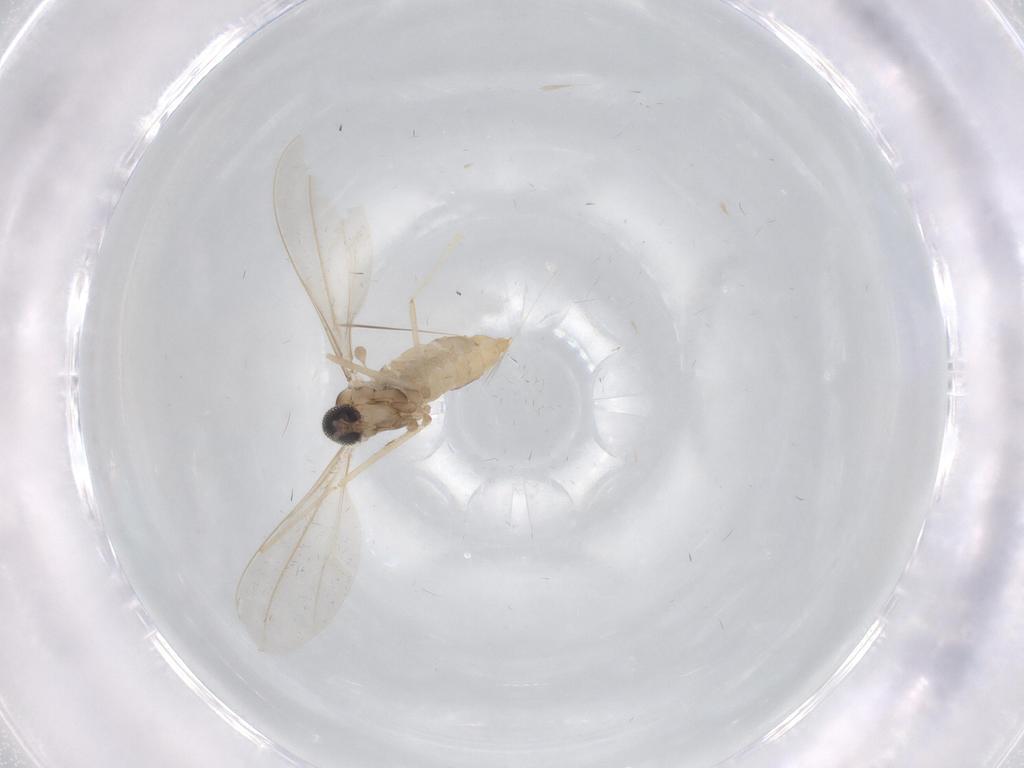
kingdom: Animalia
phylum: Arthropoda
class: Insecta
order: Diptera
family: Cecidomyiidae
